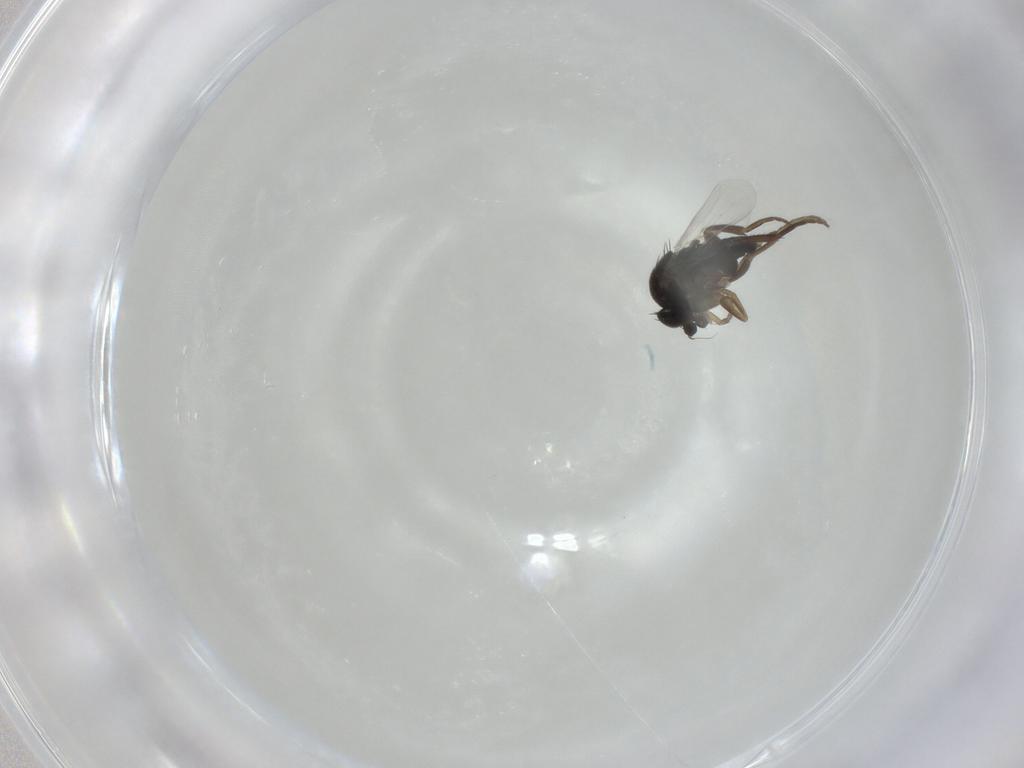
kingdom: Animalia
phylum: Arthropoda
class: Insecta
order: Diptera
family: Phoridae
